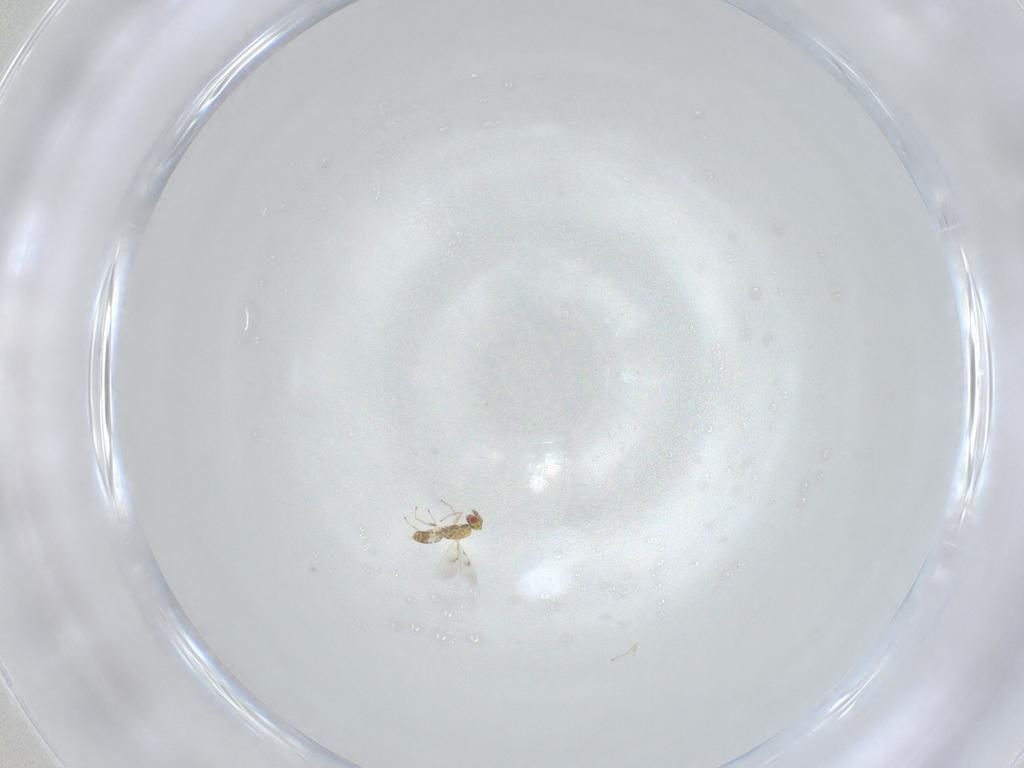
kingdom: Animalia
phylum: Arthropoda
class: Insecta
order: Hymenoptera
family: Eulophidae
